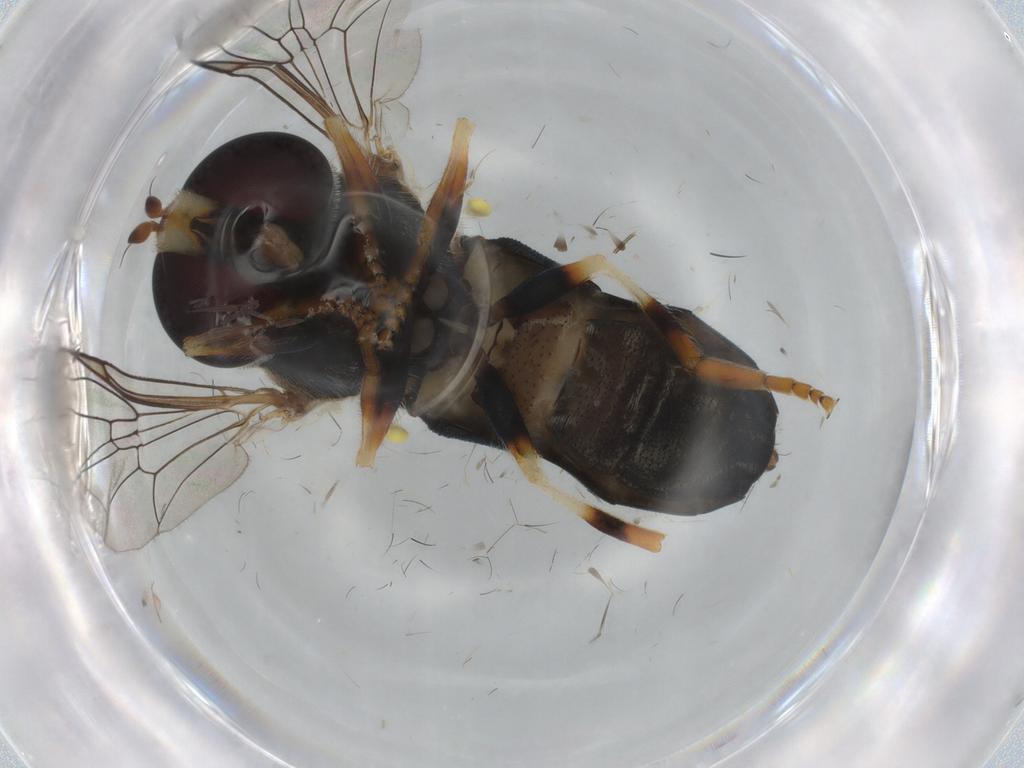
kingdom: Animalia
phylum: Arthropoda
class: Insecta
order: Diptera
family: Syrphidae
